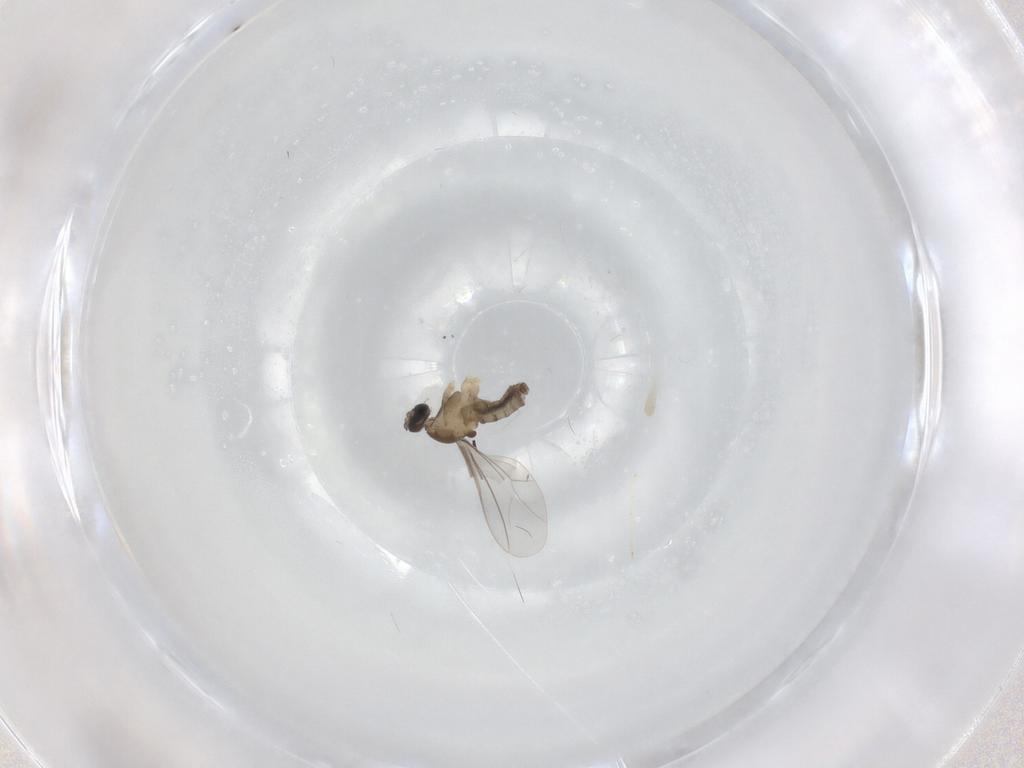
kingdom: Animalia
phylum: Arthropoda
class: Insecta
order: Diptera
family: Cecidomyiidae
